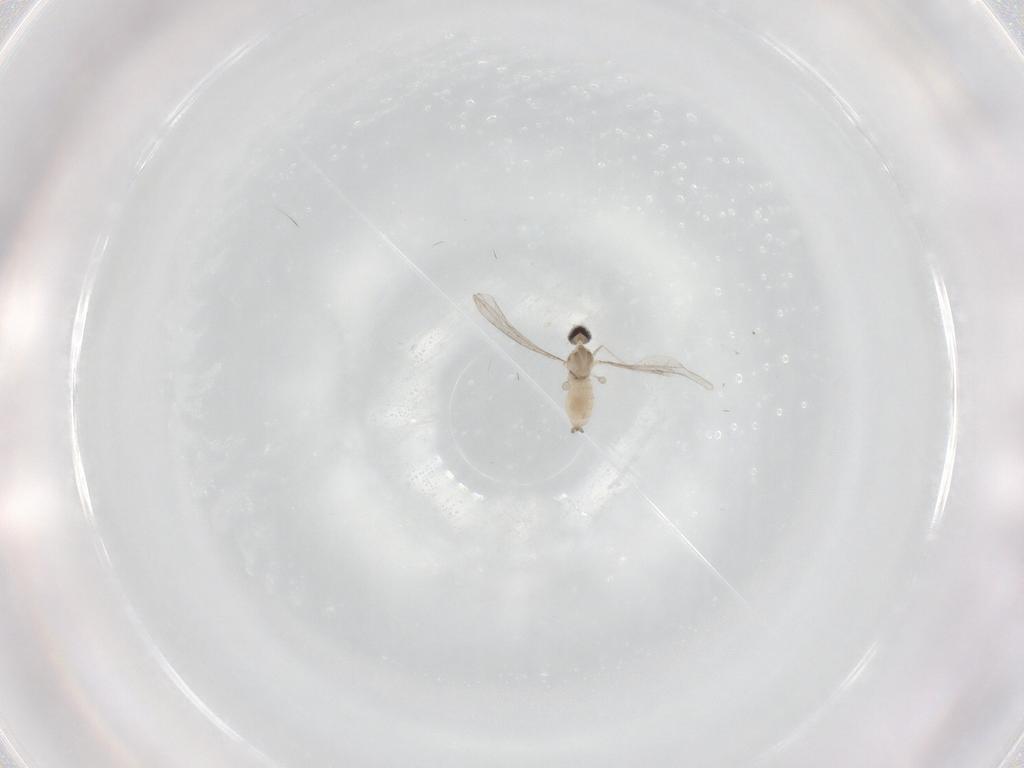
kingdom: Animalia
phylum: Arthropoda
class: Insecta
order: Diptera
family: Cecidomyiidae
